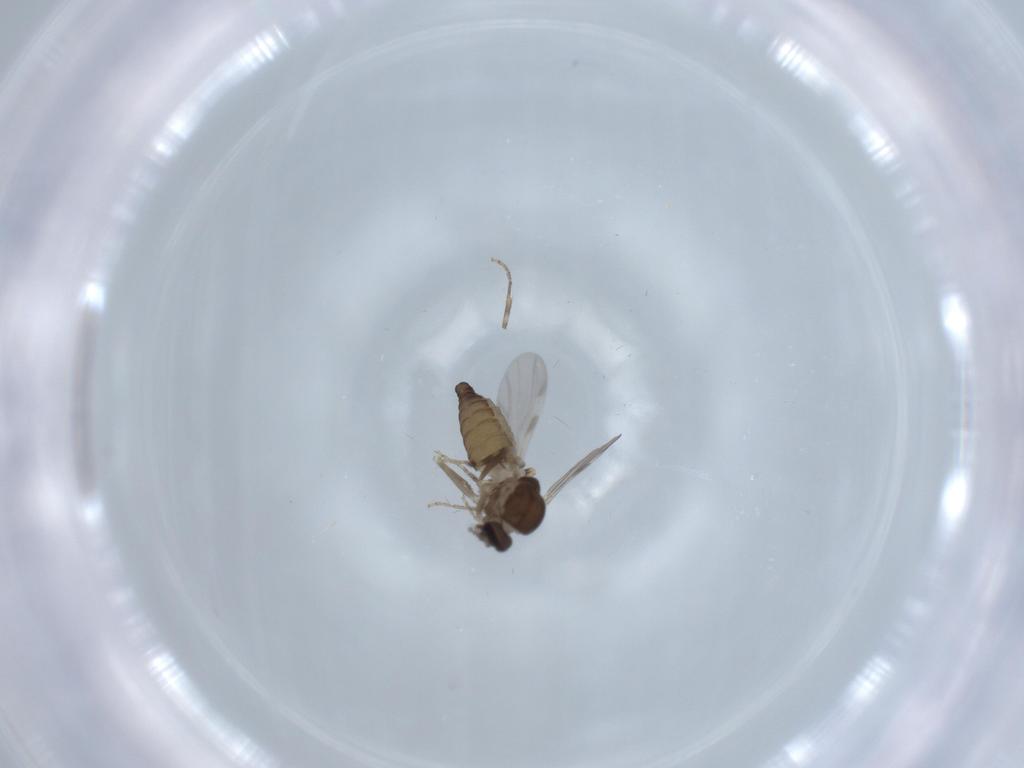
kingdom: Animalia
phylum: Arthropoda
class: Insecta
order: Diptera
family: Ceratopogonidae
